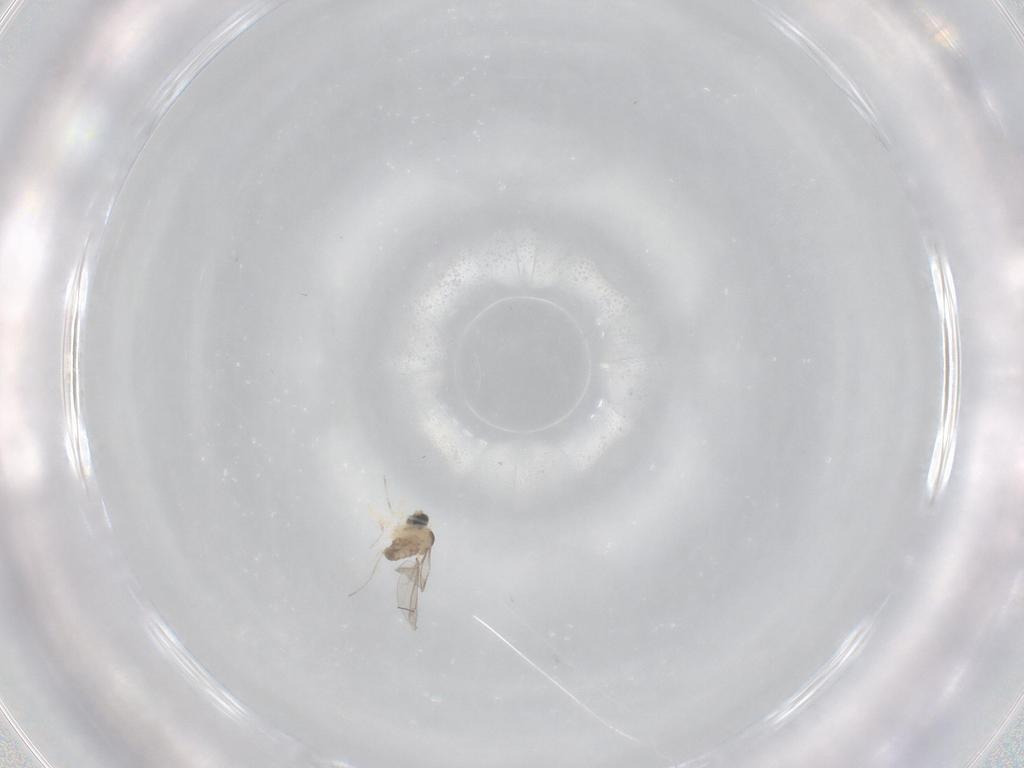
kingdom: Animalia
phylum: Arthropoda
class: Insecta
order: Diptera
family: Cecidomyiidae
